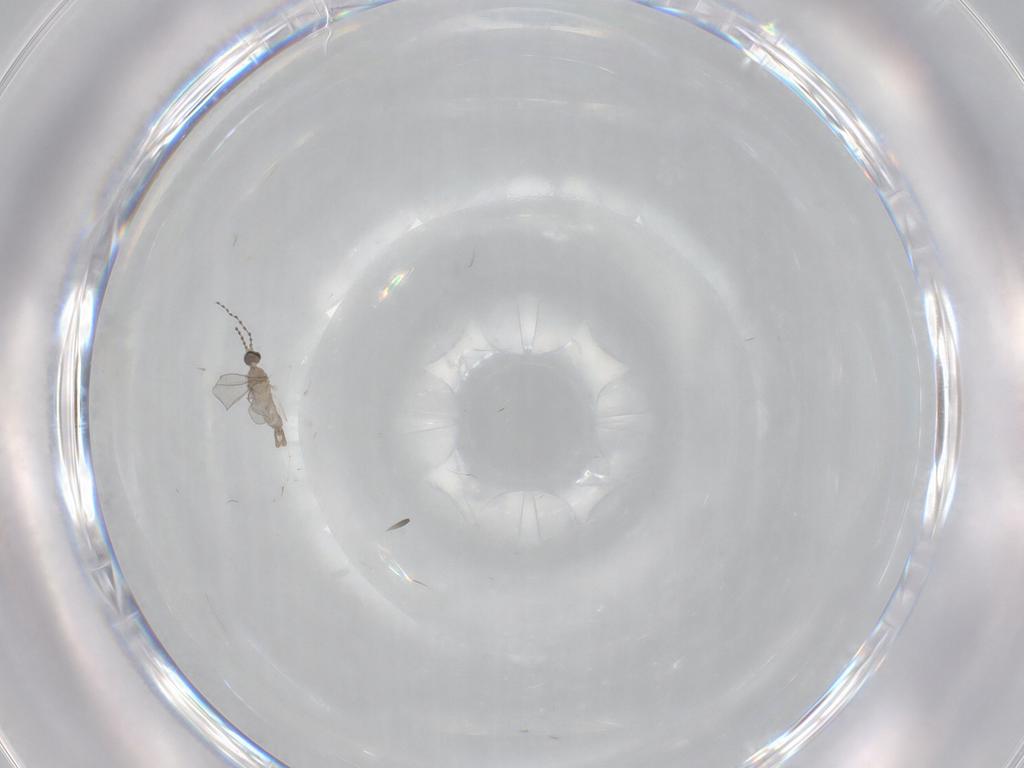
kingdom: Animalia
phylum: Arthropoda
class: Insecta
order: Diptera
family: Cecidomyiidae
